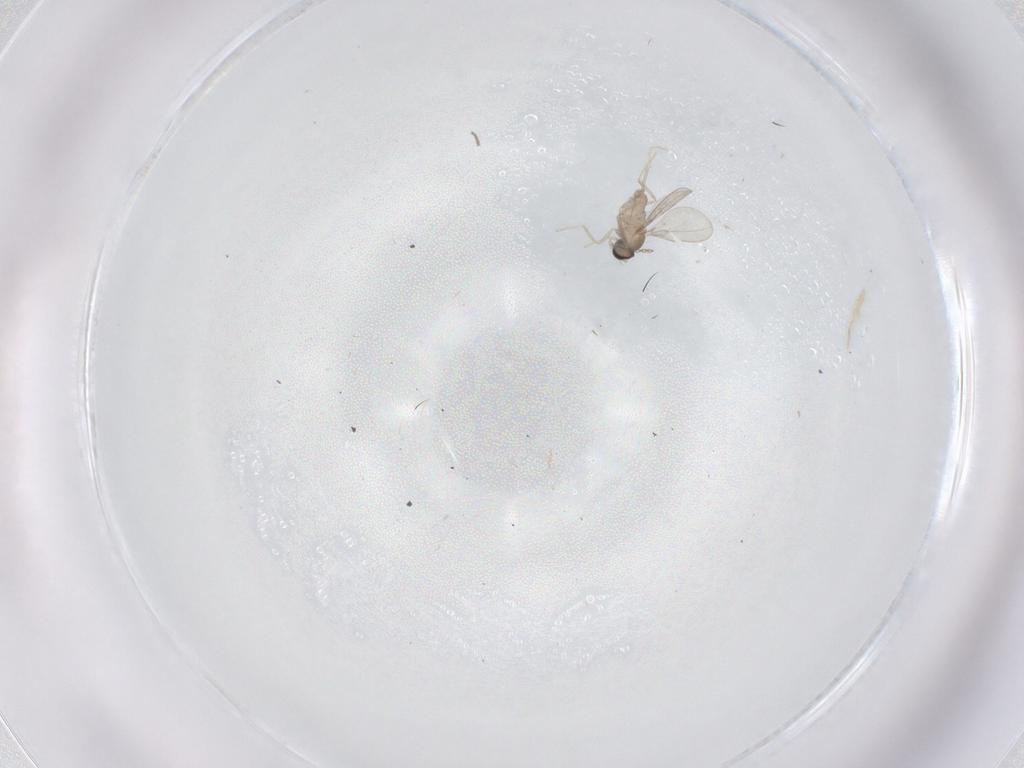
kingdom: Animalia
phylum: Arthropoda
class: Insecta
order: Diptera
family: Cecidomyiidae
